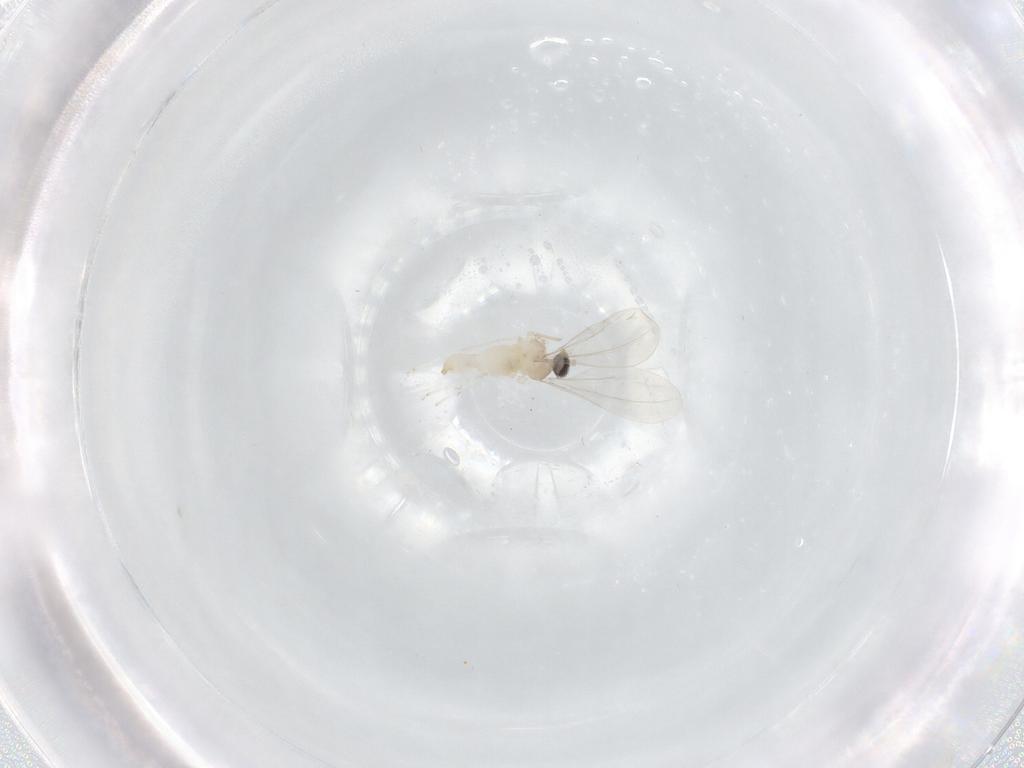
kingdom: Animalia
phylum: Arthropoda
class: Insecta
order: Diptera
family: Cecidomyiidae
